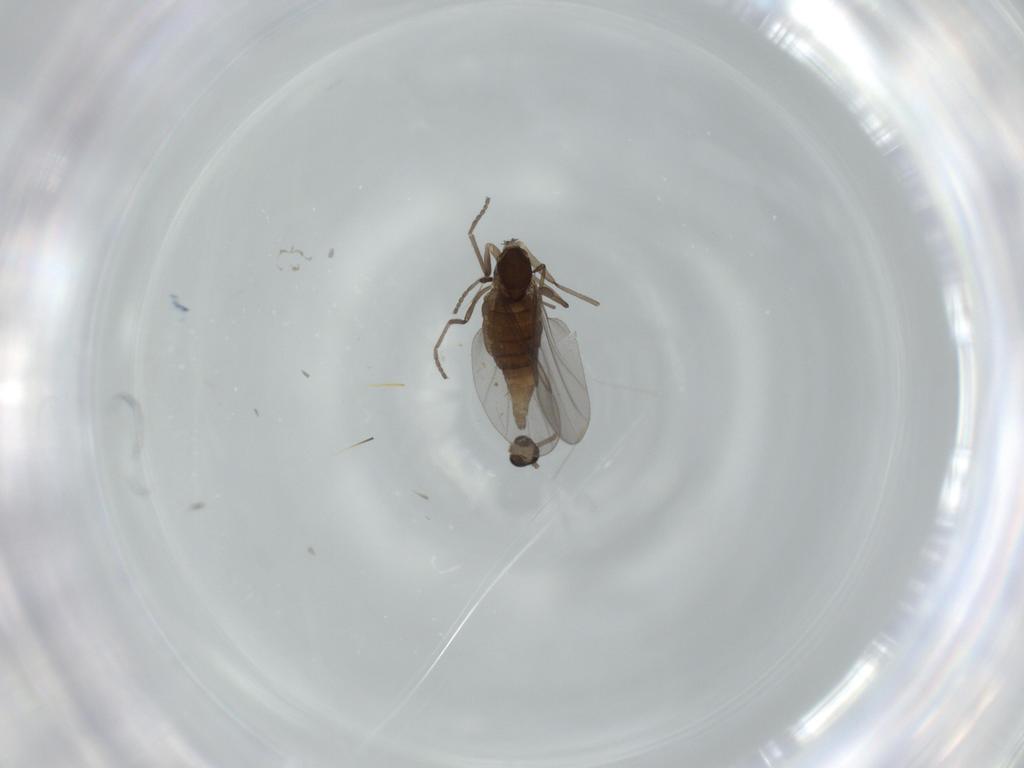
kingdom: Animalia
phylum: Arthropoda
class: Insecta
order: Diptera
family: Cecidomyiidae
